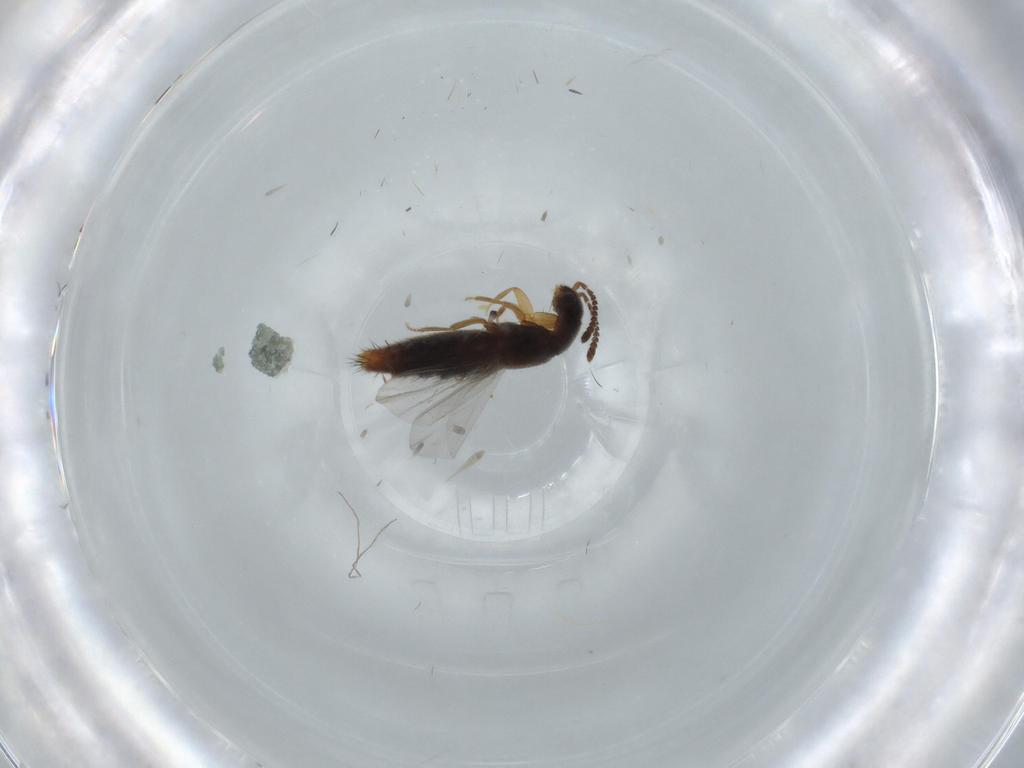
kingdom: Animalia
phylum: Arthropoda
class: Insecta
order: Coleoptera
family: Staphylinidae
